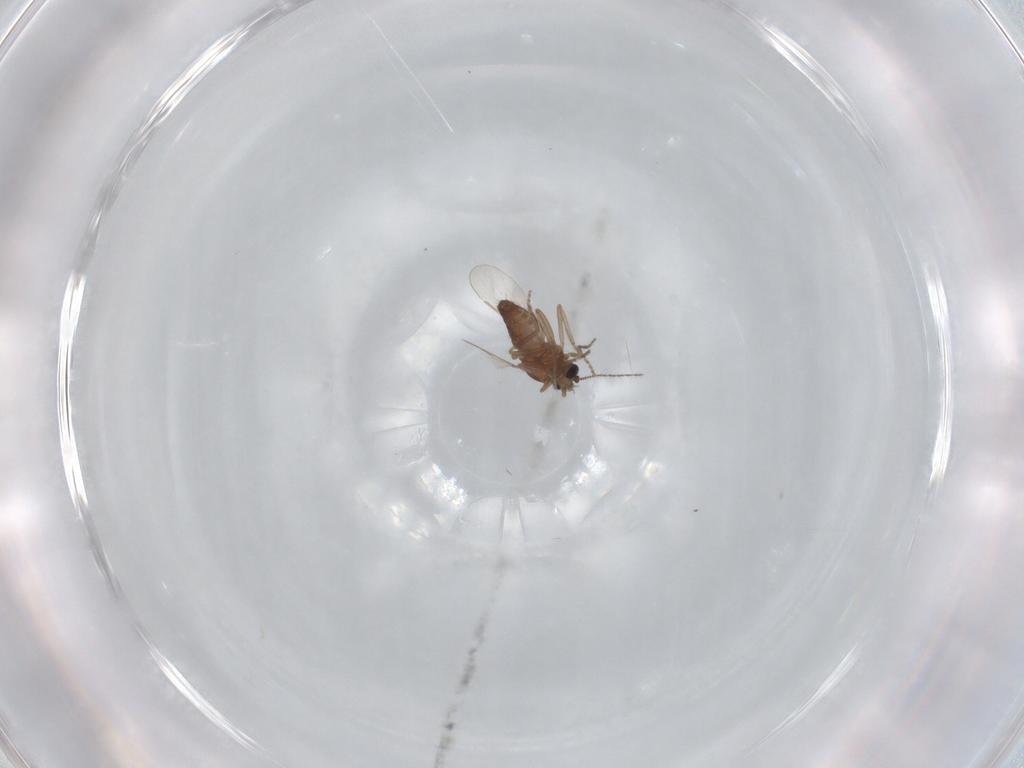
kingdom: Animalia
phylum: Arthropoda
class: Insecta
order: Diptera
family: Ceratopogonidae
